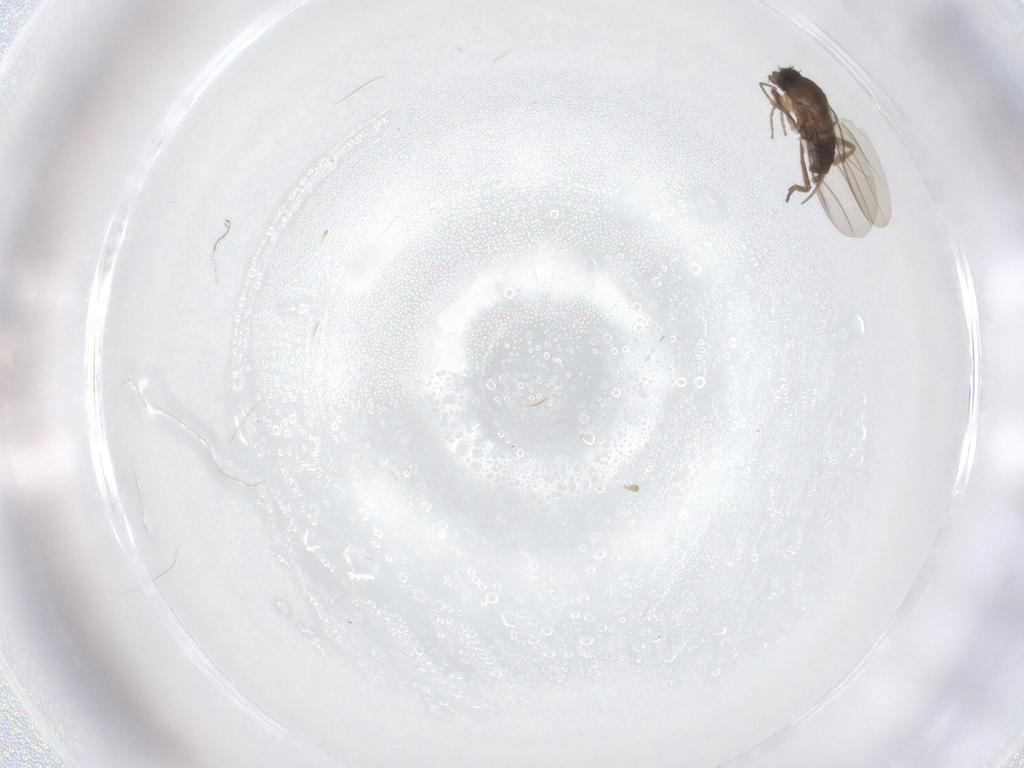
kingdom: Animalia
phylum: Arthropoda
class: Insecta
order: Diptera
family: Phoridae
